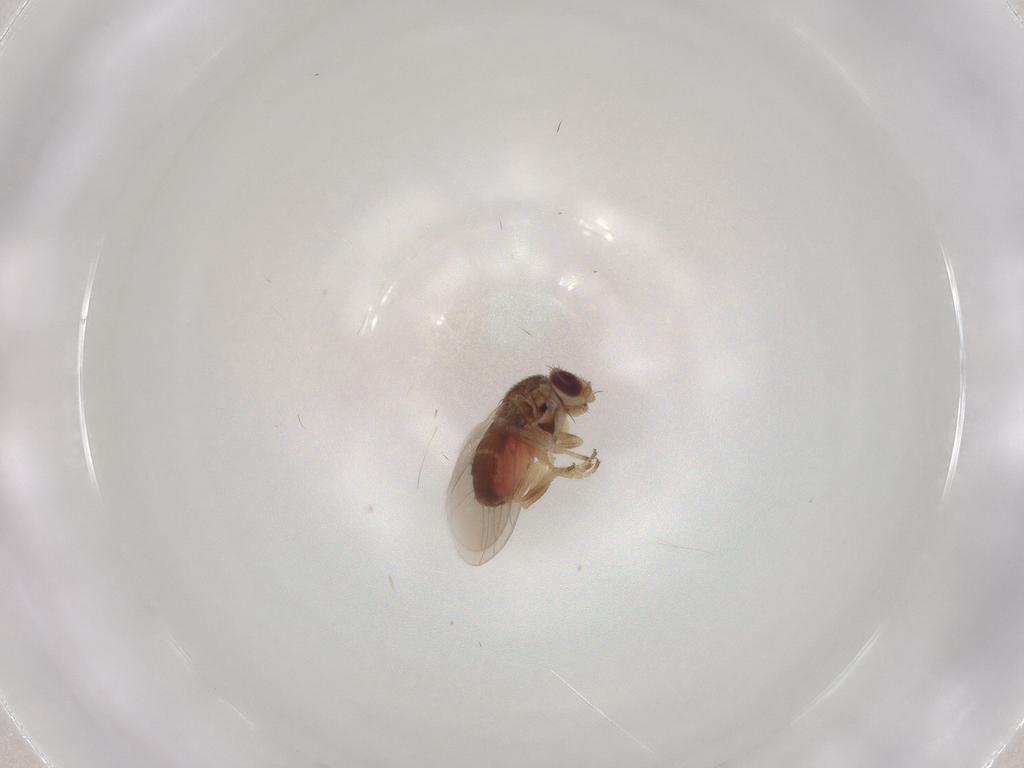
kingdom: Animalia
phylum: Arthropoda
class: Insecta
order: Diptera
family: Chloropidae
